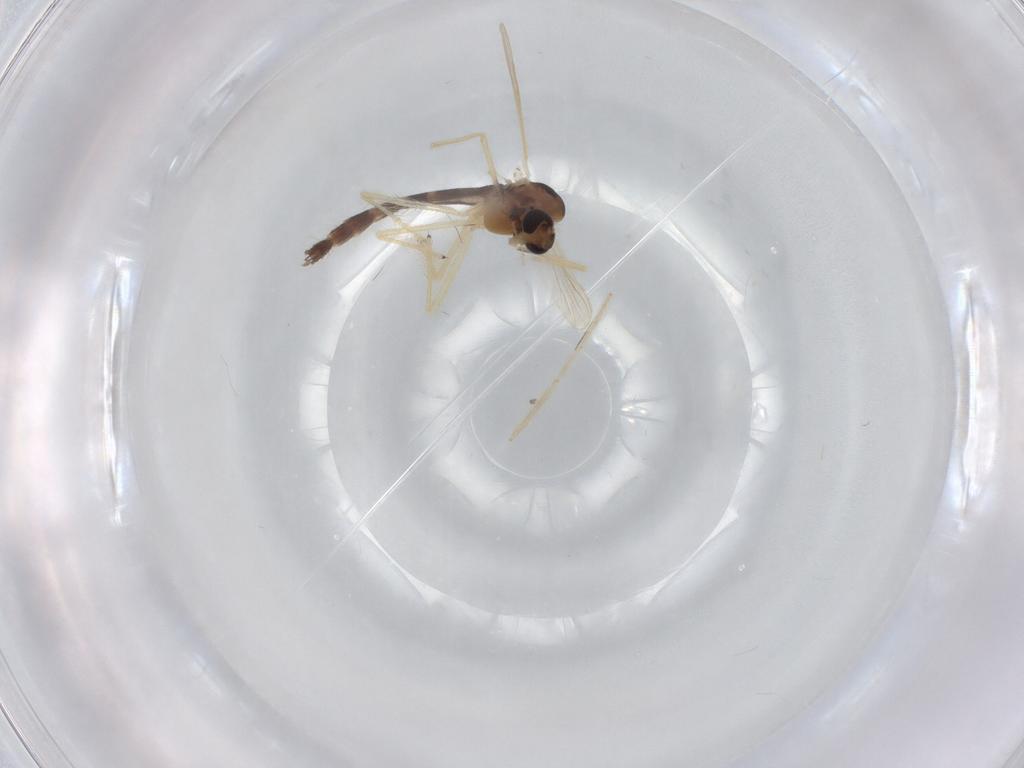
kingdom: Animalia
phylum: Arthropoda
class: Insecta
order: Diptera
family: Chironomidae
